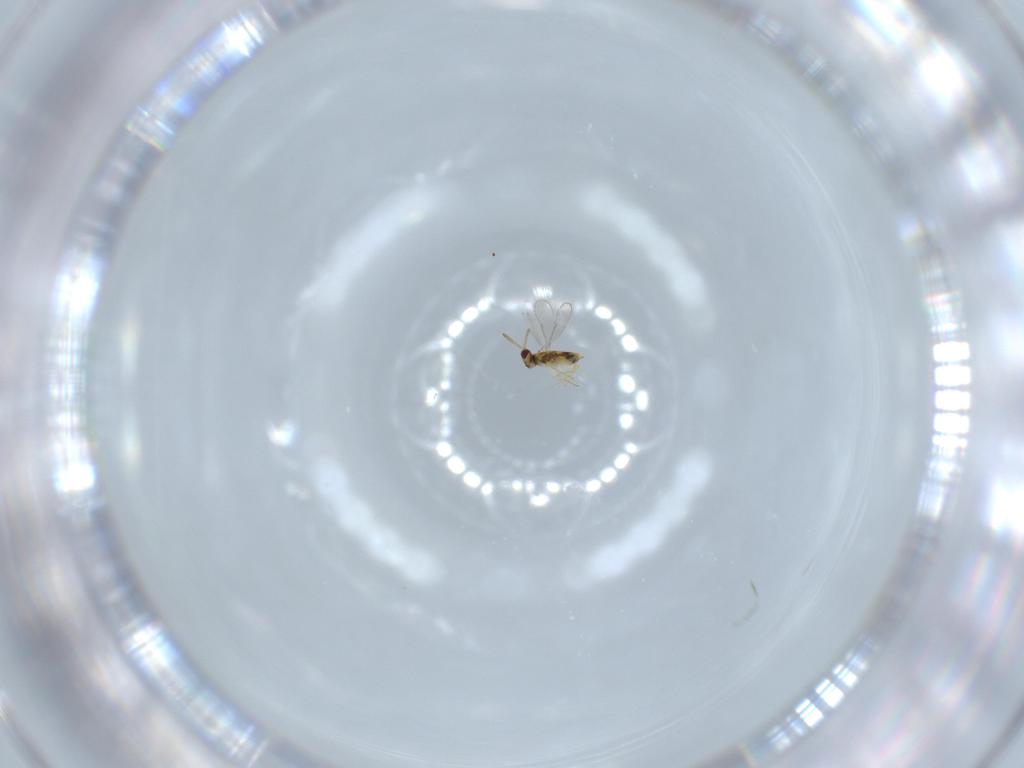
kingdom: Animalia
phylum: Arthropoda
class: Insecta
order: Hymenoptera
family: Aphelinidae
